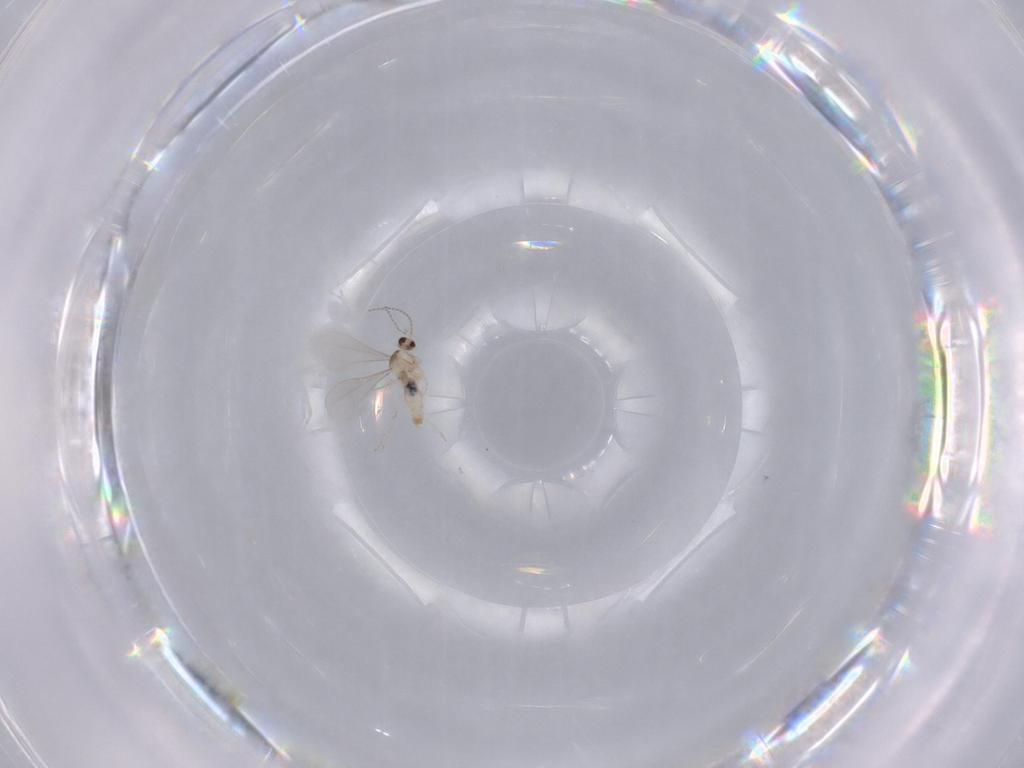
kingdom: Animalia
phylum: Arthropoda
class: Insecta
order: Diptera
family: Cecidomyiidae
